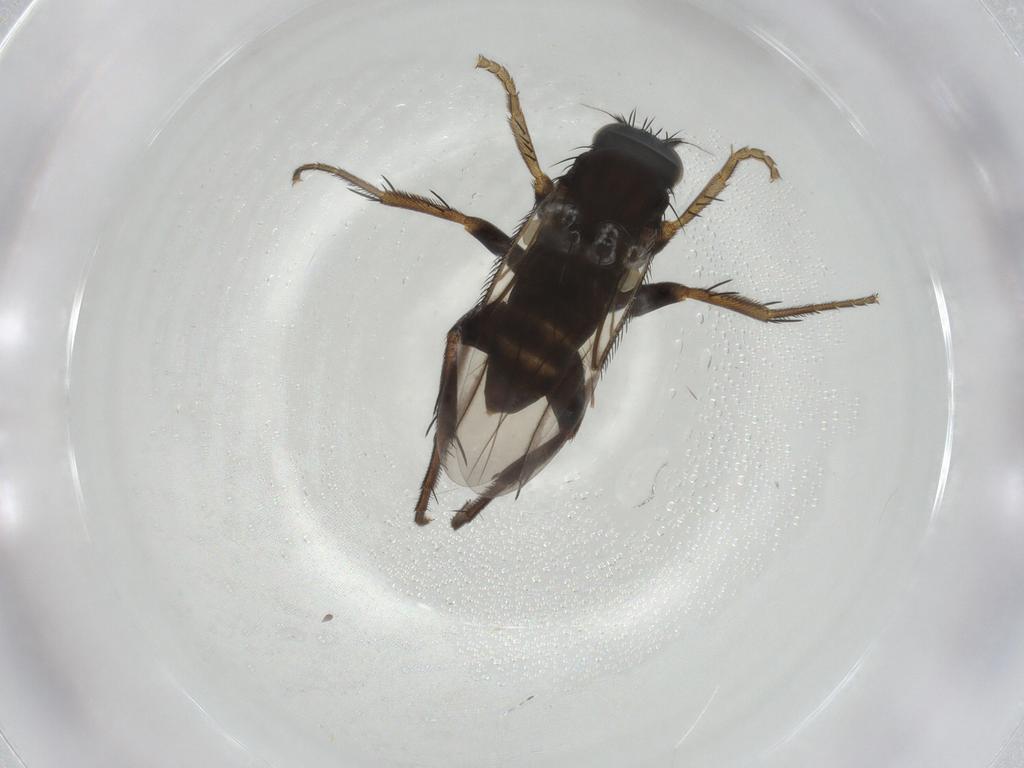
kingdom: Animalia
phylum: Arthropoda
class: Insecta
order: Diptera
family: Phoridae
